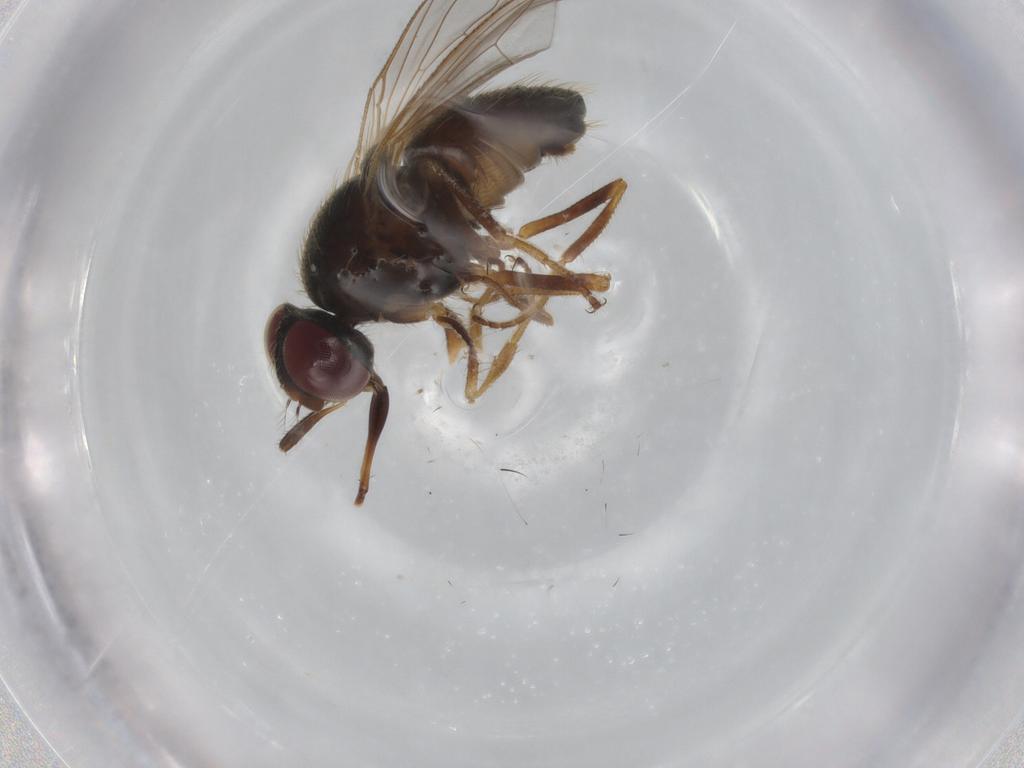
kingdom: Animalia
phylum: Arthropoda
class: Insecta
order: Diptera
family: Muscidae
